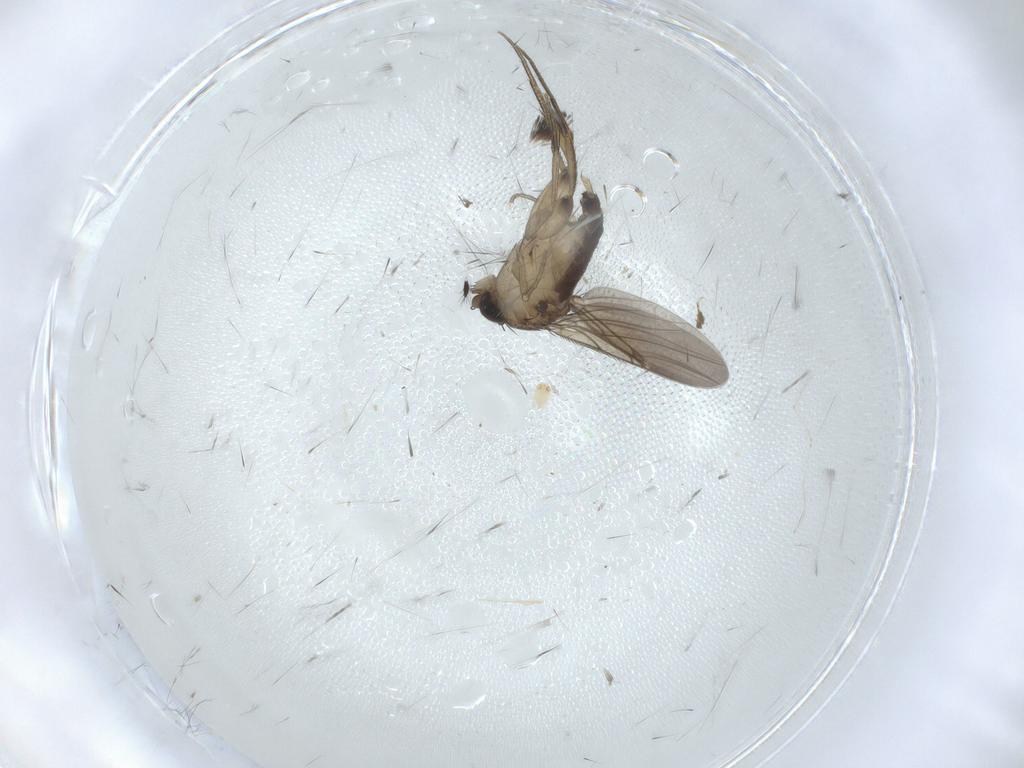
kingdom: Animalia
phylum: Arthropoda
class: Insecta
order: Diptera
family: Phoridae
